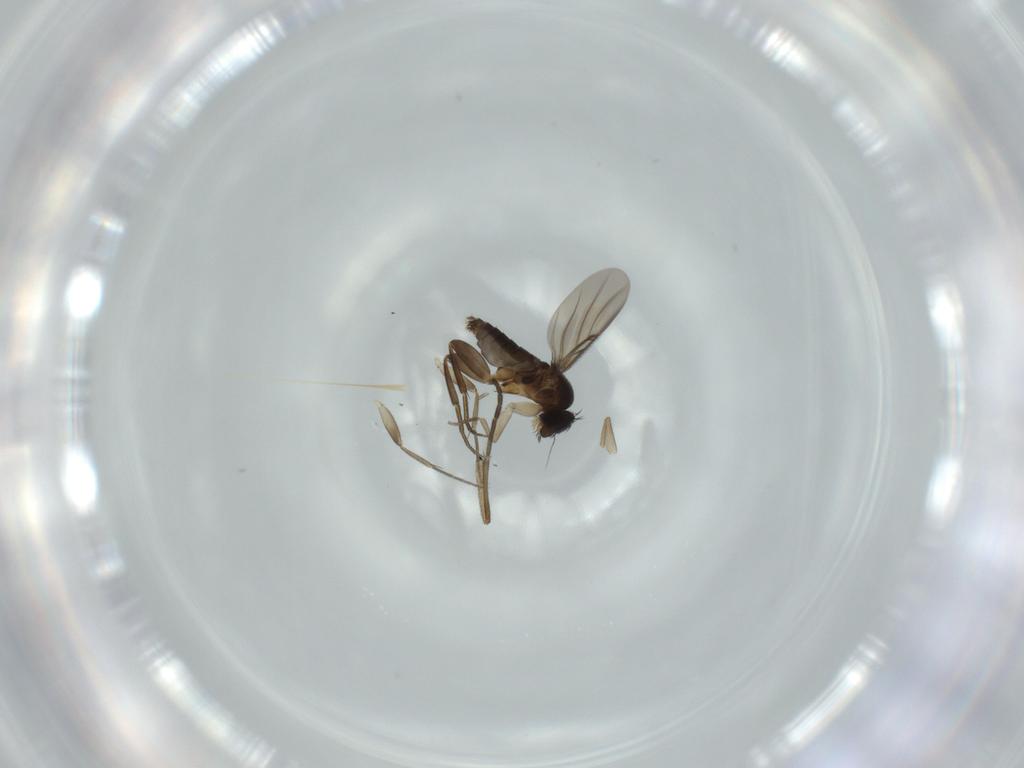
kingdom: Animalia
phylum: Arthropoda
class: Insecta
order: Diptera
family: Phoridae
